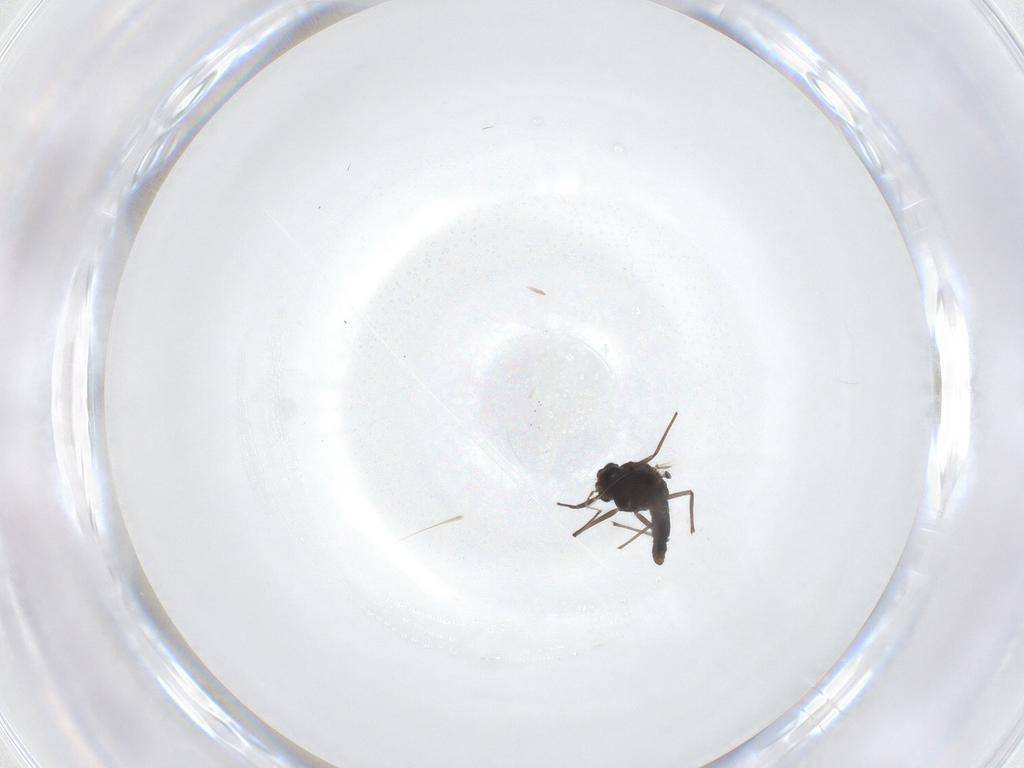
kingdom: Animalia
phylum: Arthropoda
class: Insecta
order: Diptera
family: Chironomidae
